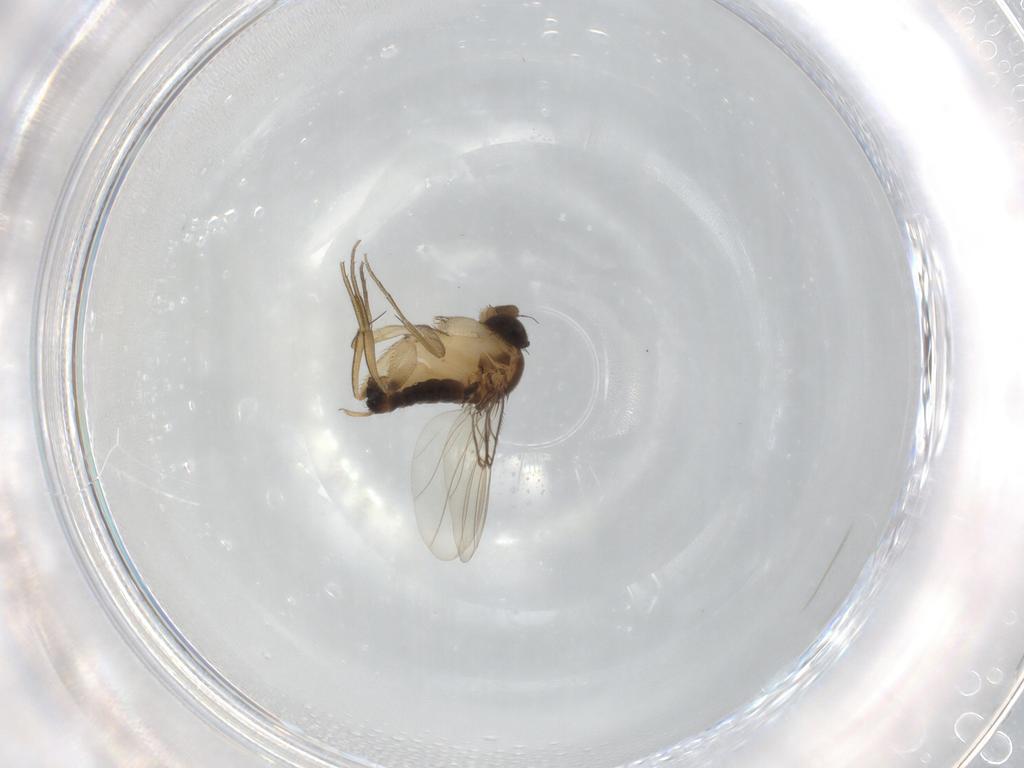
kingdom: Animalia
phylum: Arthropoda
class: Insecta
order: Diptera
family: Phoridae
